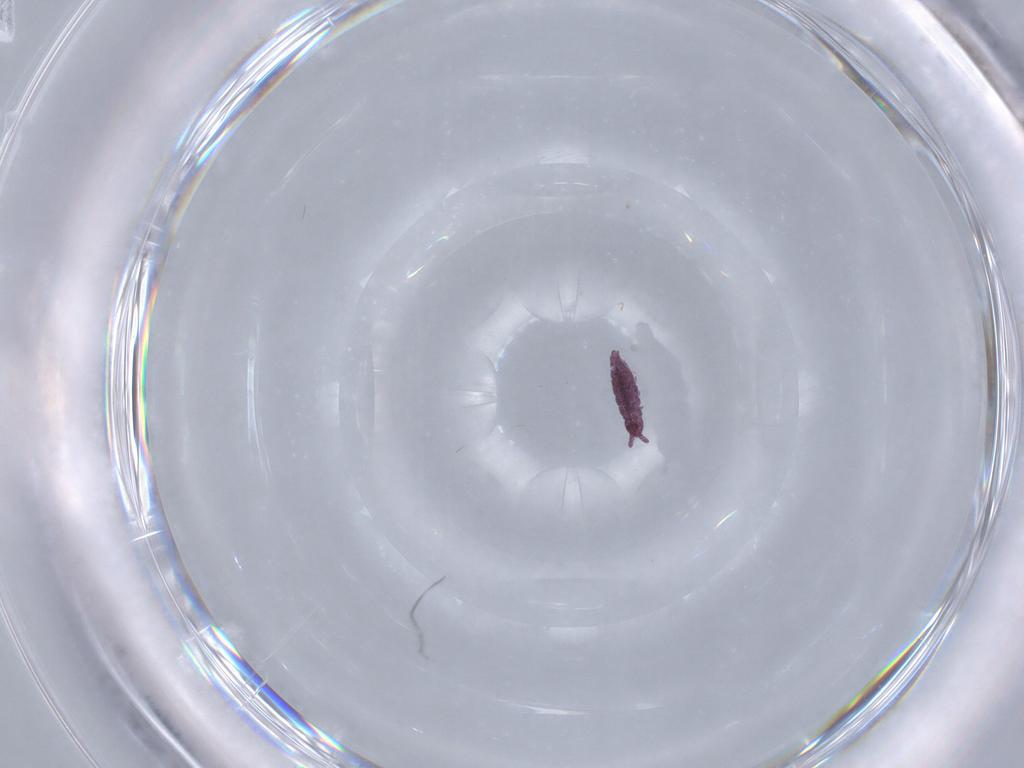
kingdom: Animalia
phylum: Arthropoda
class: Collembola
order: Poduromorpha
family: Brachystomellidae
